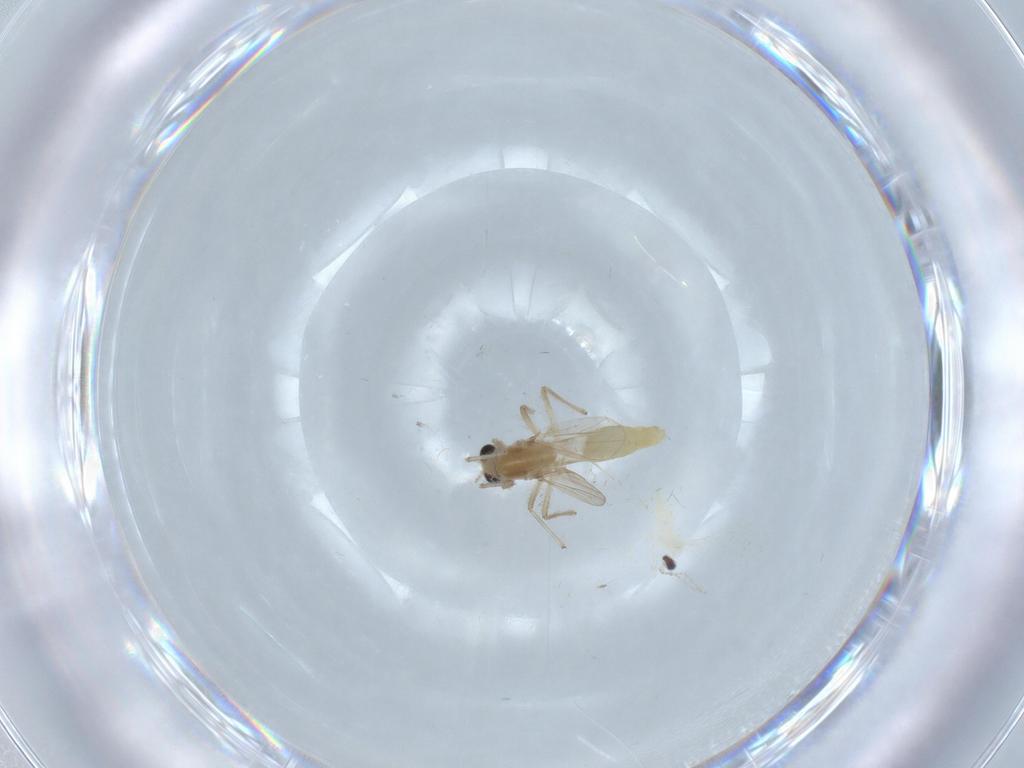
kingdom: Animalia
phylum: Arthropoda
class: Insecta
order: Diptera
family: Chironomidae
